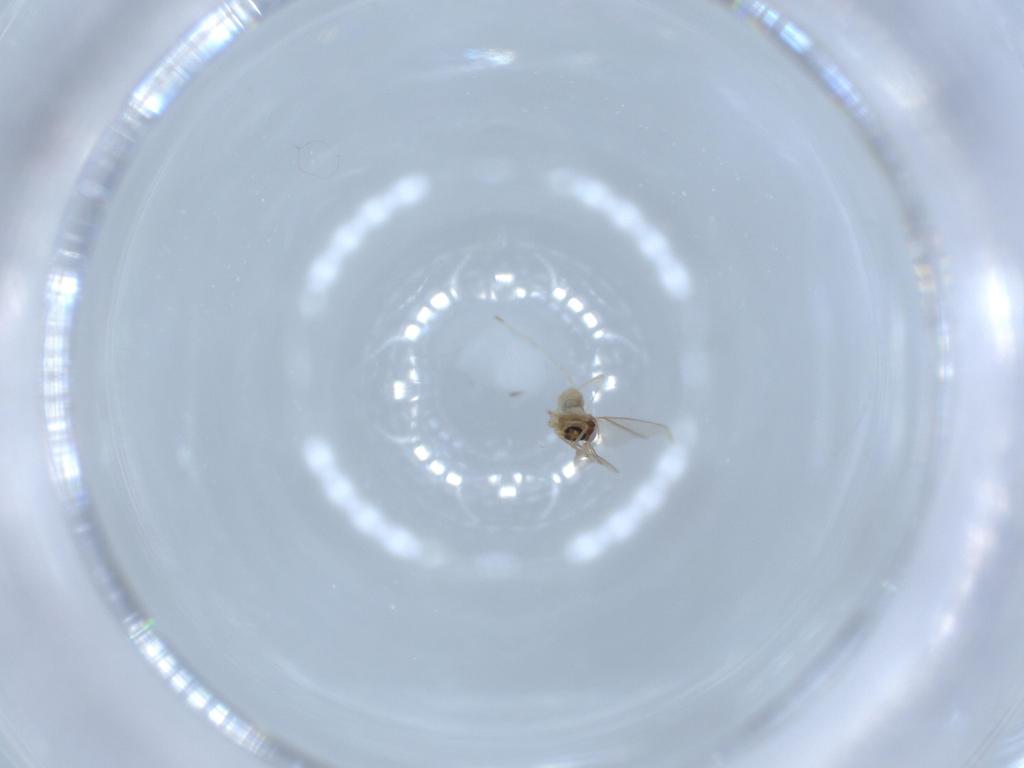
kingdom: Animalia
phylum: Arthropoda
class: Insecta
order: Diptera
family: Cecidomyiidae
